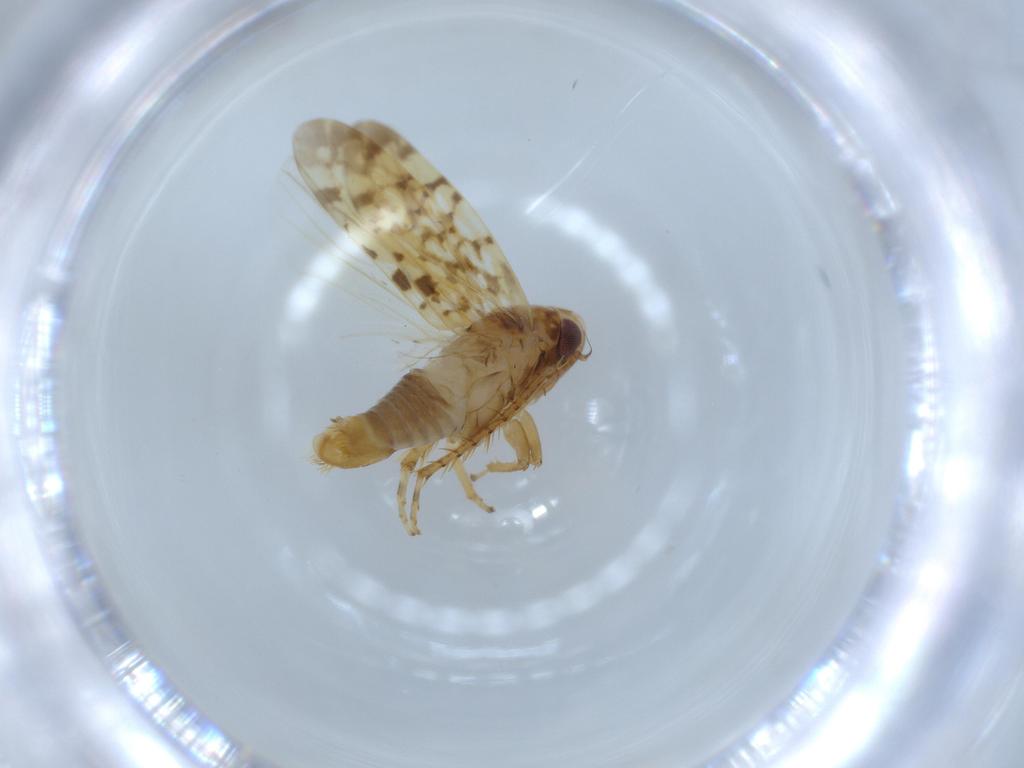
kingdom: Animalia
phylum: Arthropoda
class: Insecta
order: Hemiptera
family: Cicadellidae
